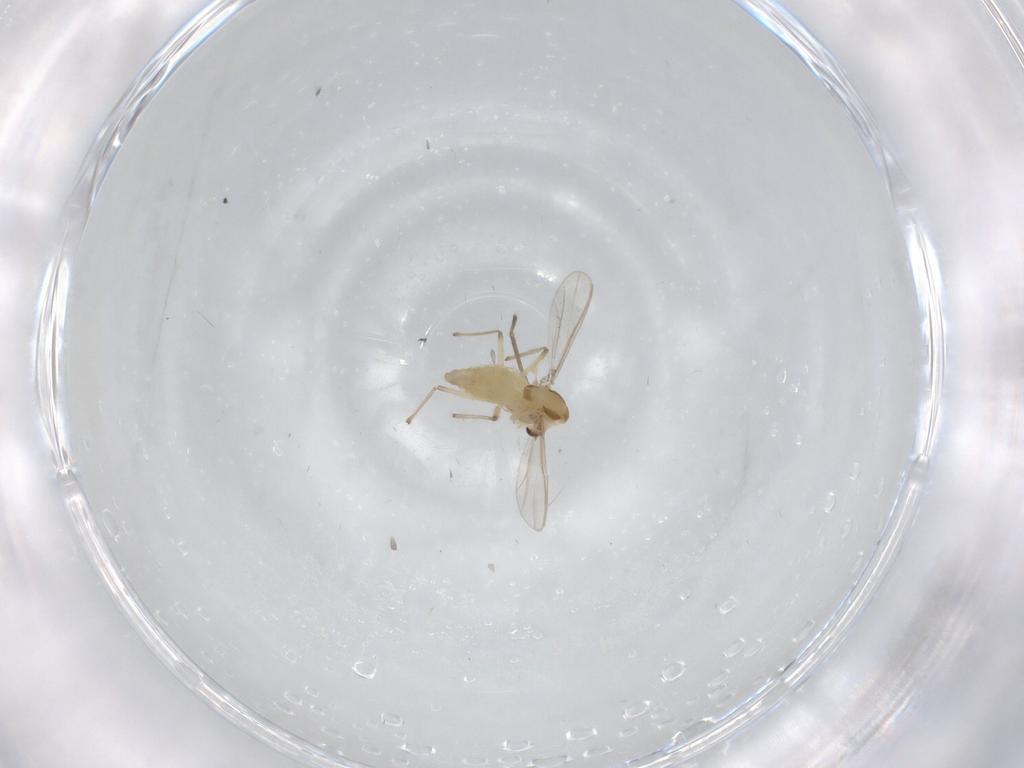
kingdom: Animalia
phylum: Arthropoda
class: Insecta
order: Diptera
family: Chironomidae
